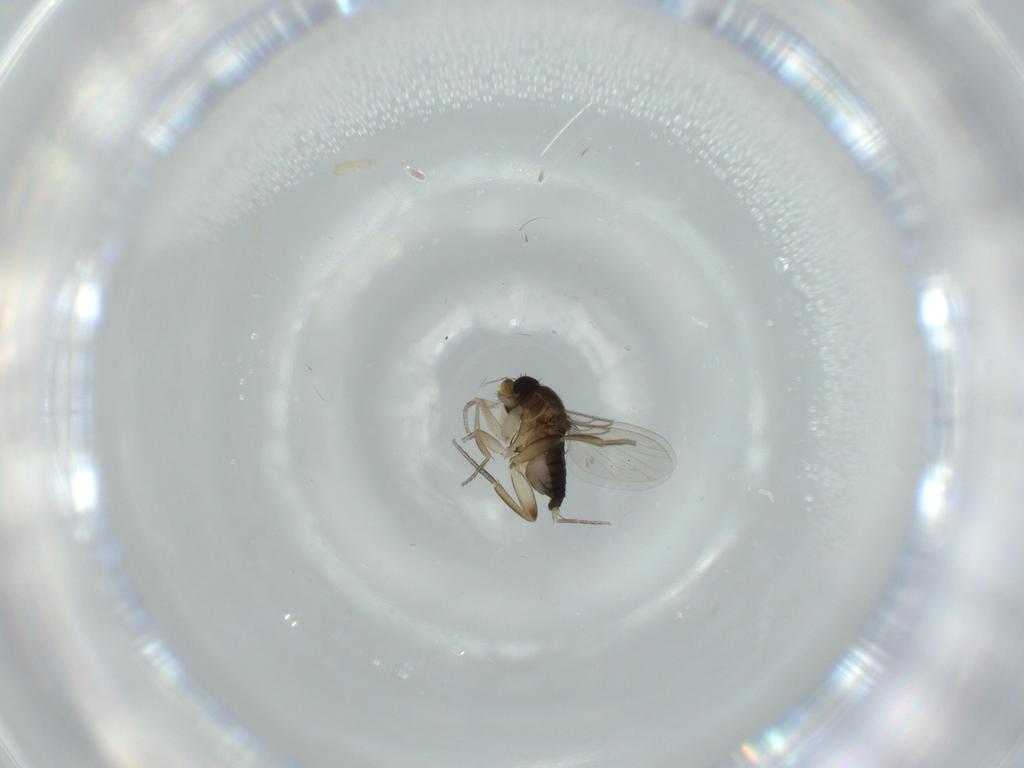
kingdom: Animalia
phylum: Arthropoda
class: Insecta
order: Diptera
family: Phoridae
